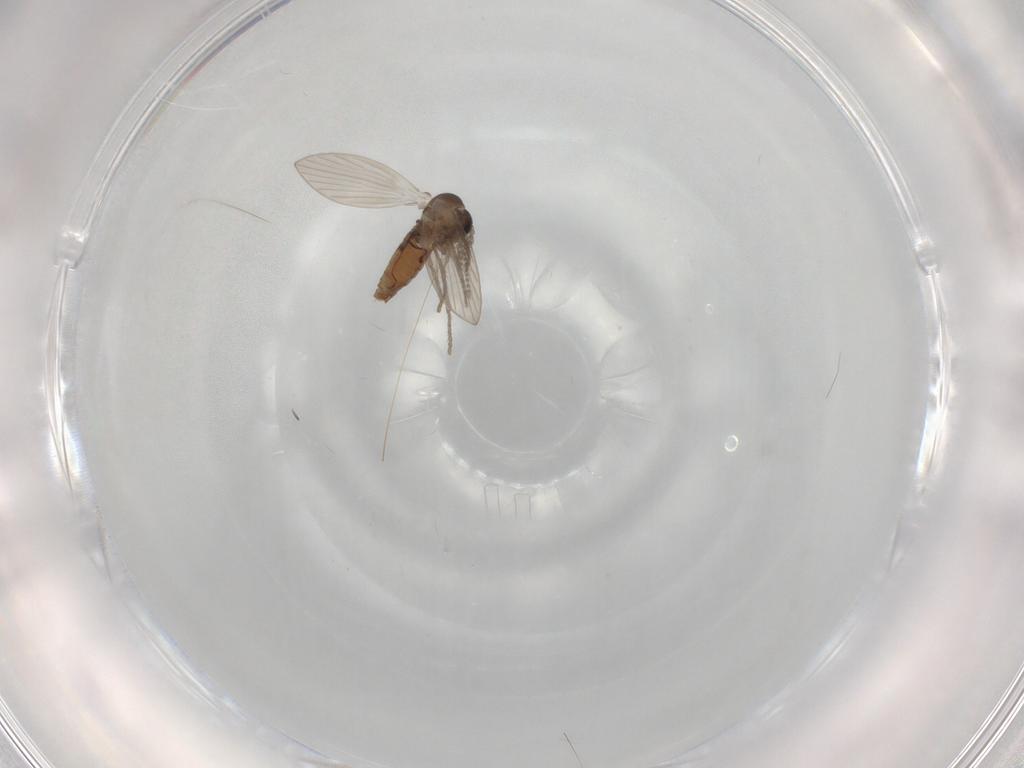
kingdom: Animalia
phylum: Arthropoda
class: Insecta
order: Diptera
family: Psychodidae
